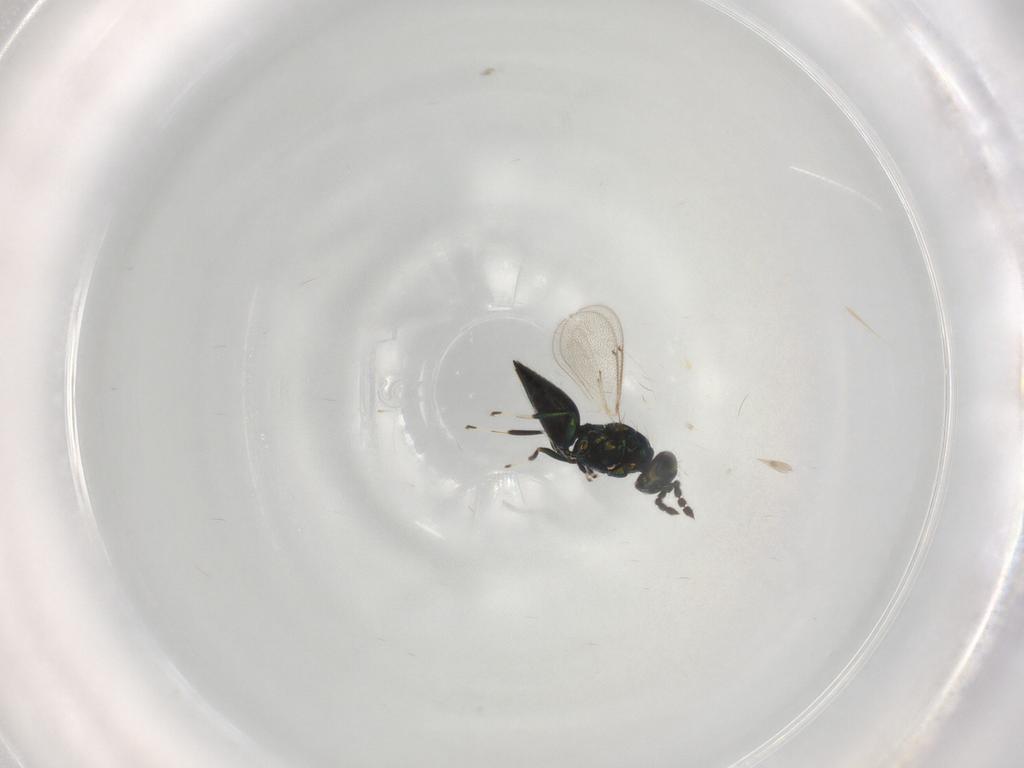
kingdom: Animalia
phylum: Arthropoda
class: Insecta
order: Hymenoptera
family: Eulophidae
